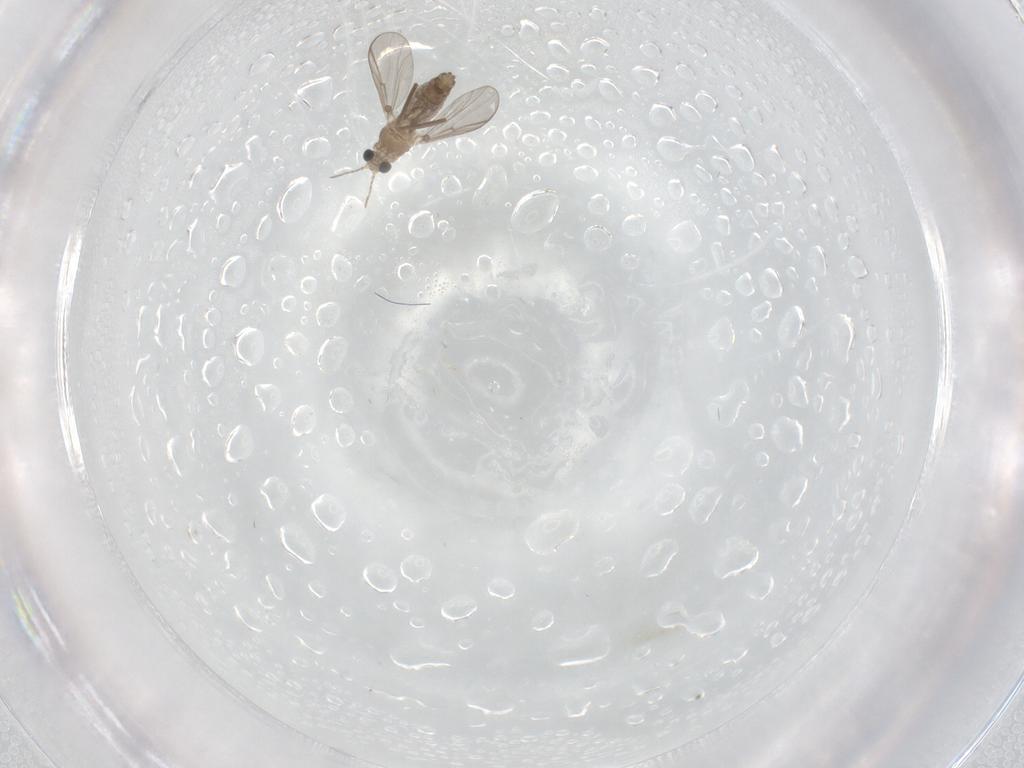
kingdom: Animalia
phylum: Arthropoda
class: Insecta
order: Diptera
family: Chironomidae
